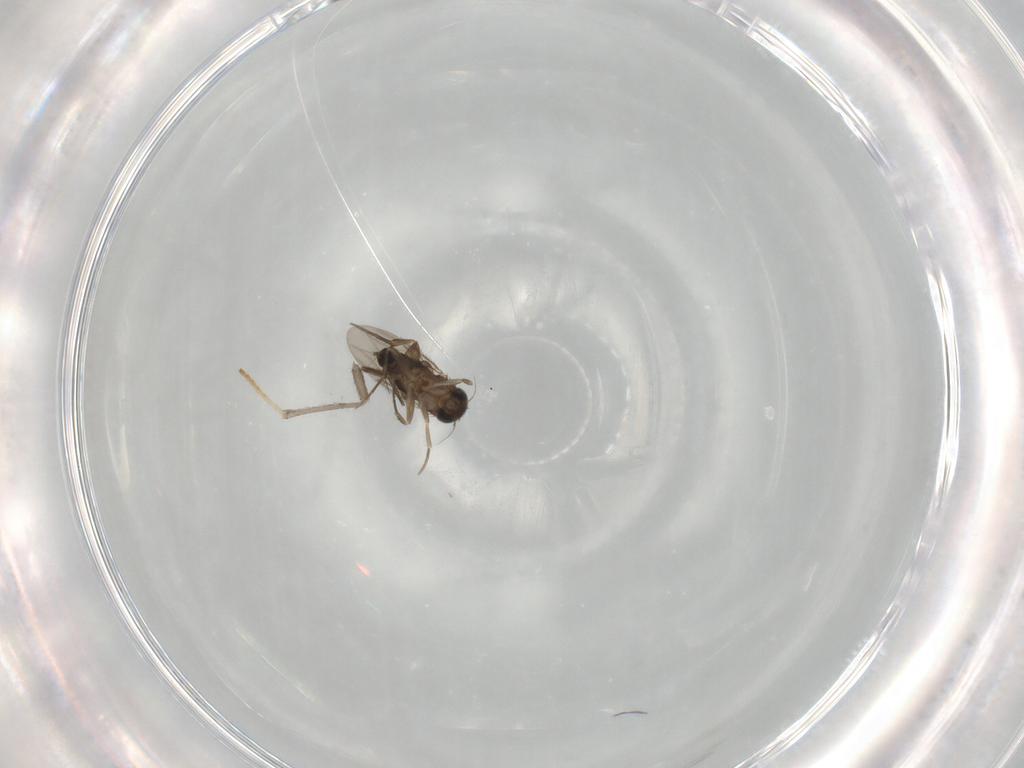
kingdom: Animalia
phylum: Arthropoda
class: Insecta
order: Diptera
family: Phoridae
